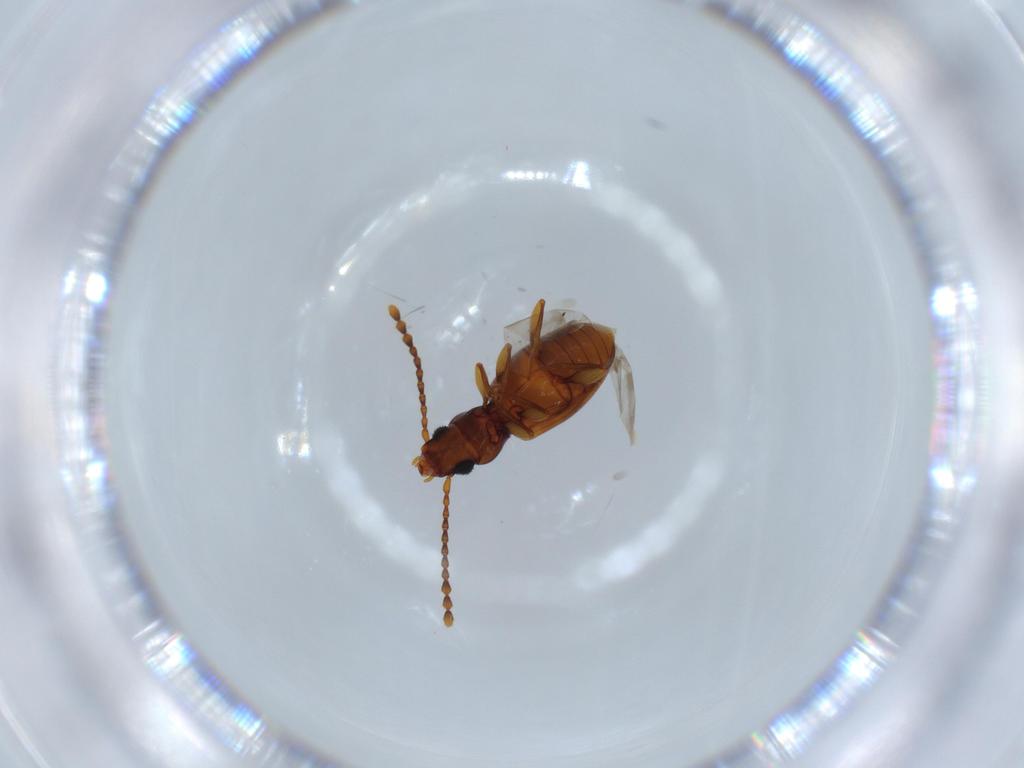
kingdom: Animalia
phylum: Arthropoda
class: Insecta
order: Coleoptera
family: Laemophloeidae
